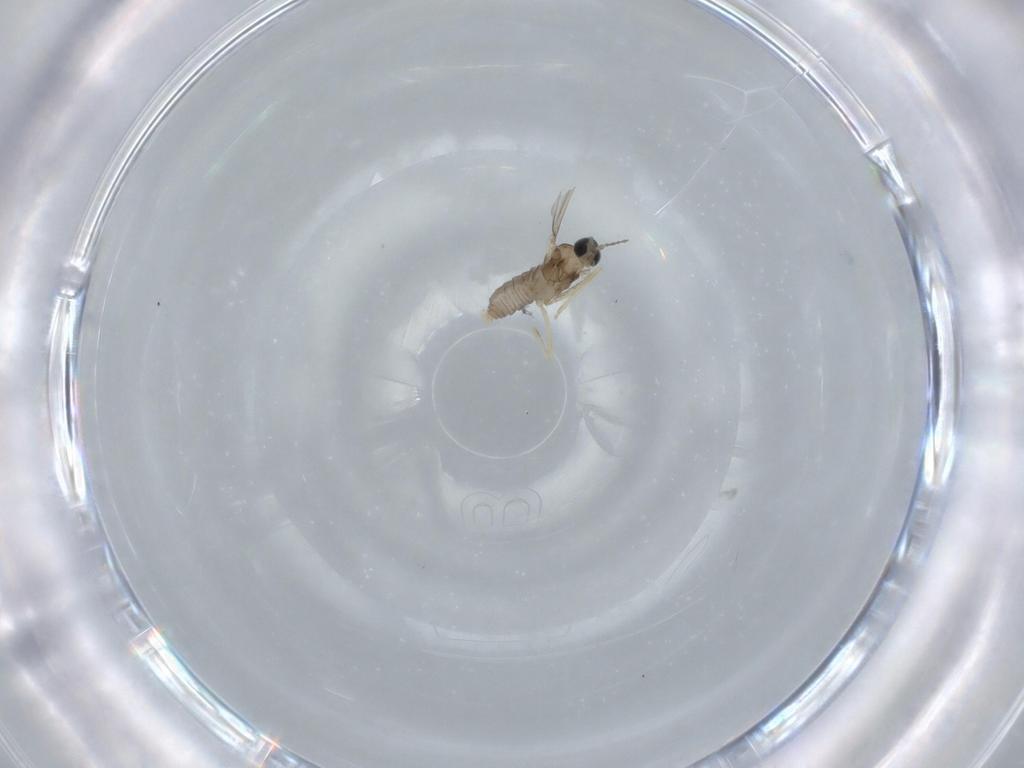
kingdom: Animalia
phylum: Arthropoda
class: Insecta
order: Diptera
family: Cecidomyiidae
